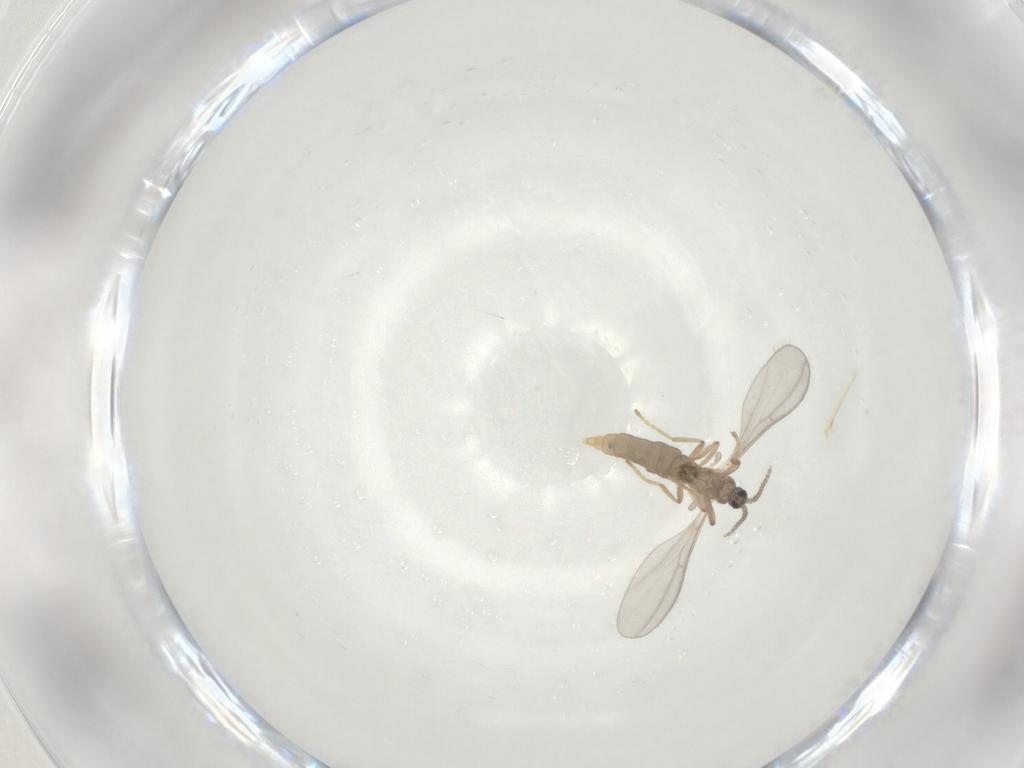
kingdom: Animalia
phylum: Arthropoda
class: Insecta
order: Diptera
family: Cecidomyiidae
